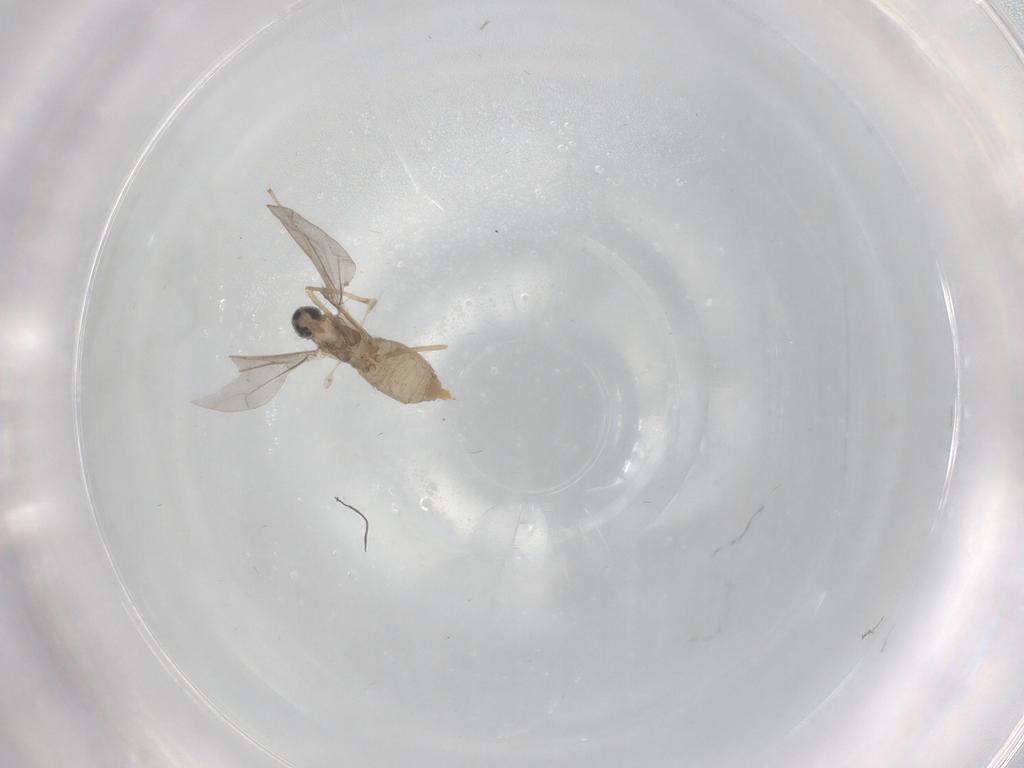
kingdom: Animalia
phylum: Arthropoda
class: Insecta
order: Diptera
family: Cecidomyiidae
